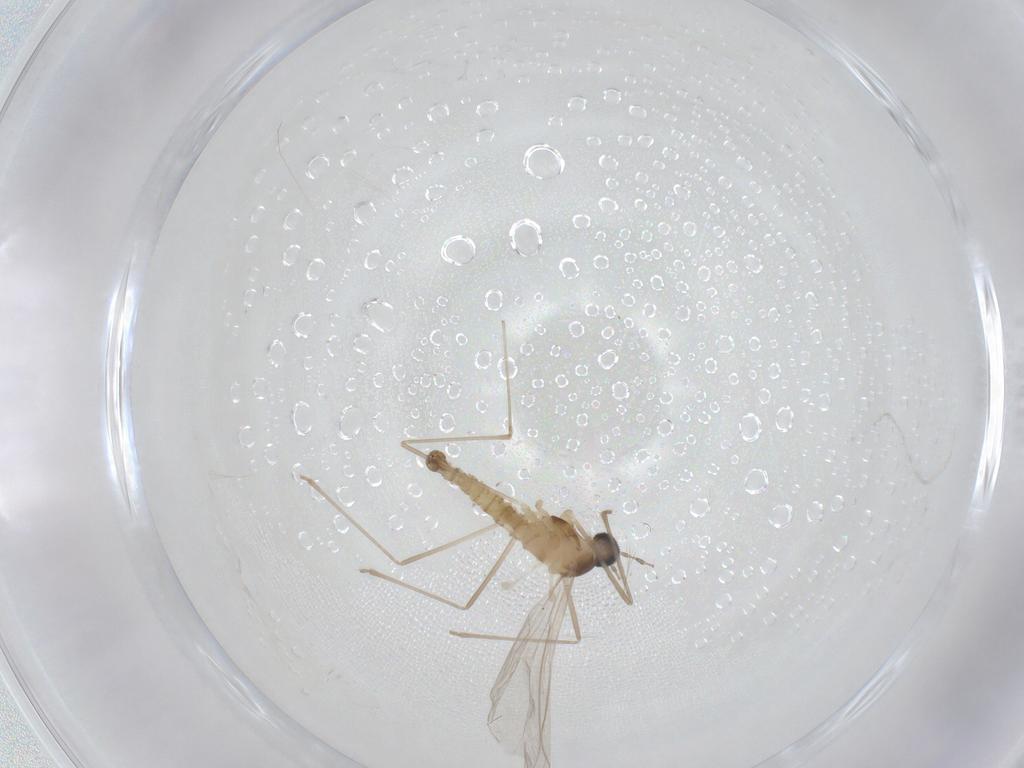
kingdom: Animalia
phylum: Arthropoda
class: Insecta
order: Diptera
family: Cecidomyiidae
